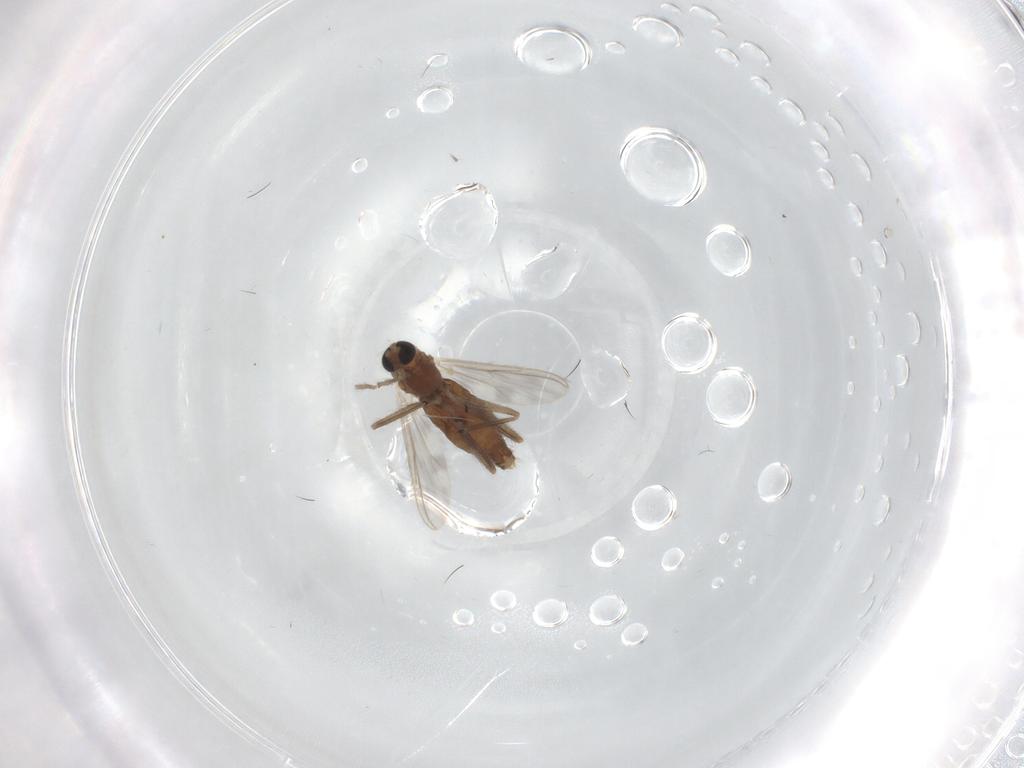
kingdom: Animalia
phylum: Arthropoda
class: Insecta
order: Diptera
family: Chironomidae
